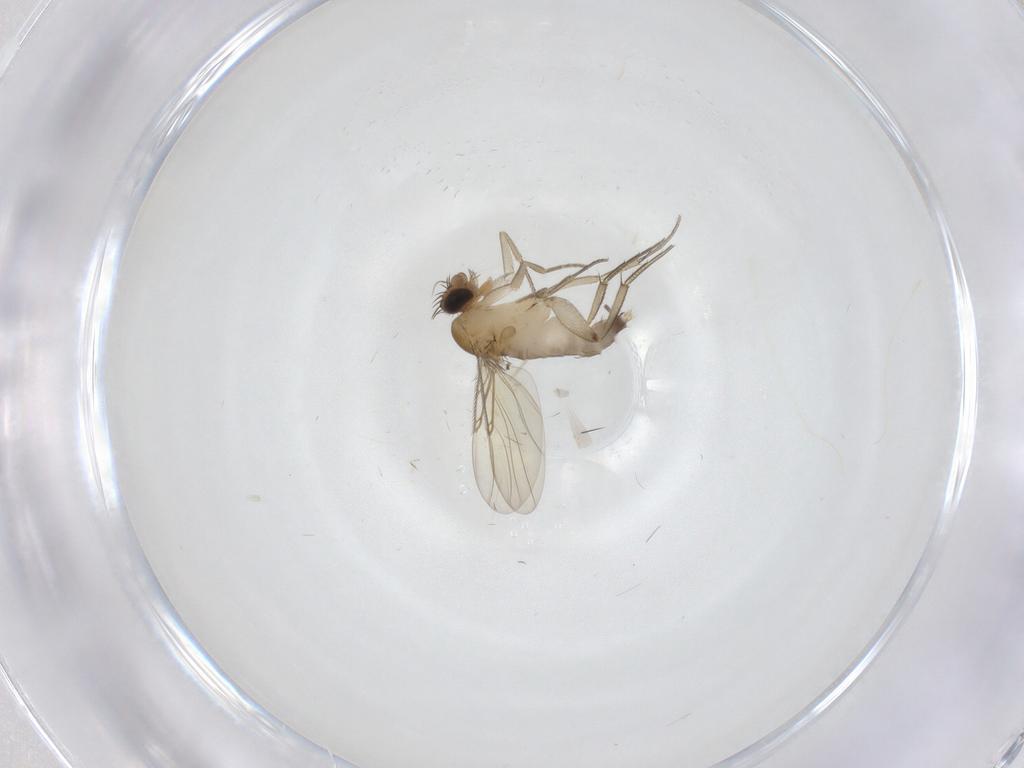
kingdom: Animalia
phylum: Arthropoda
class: Insecta
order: Diptera
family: Phoridae
